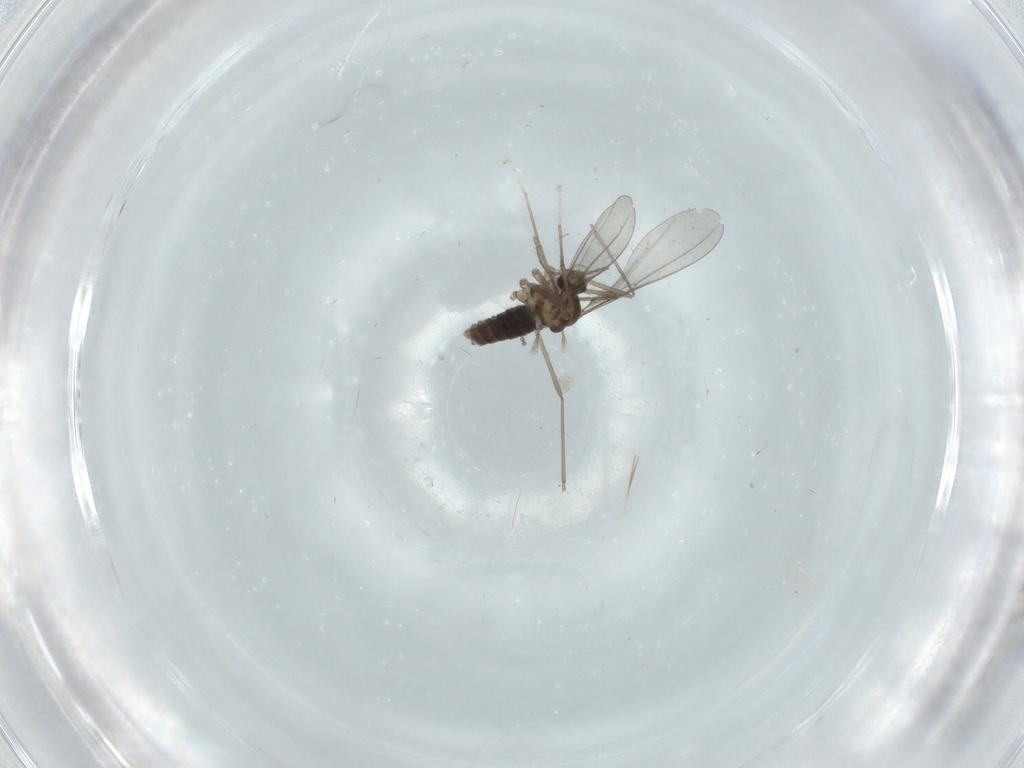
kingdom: Animalia
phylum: Arthropoda
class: Insecta
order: Diptera
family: Cecidomyiidae
